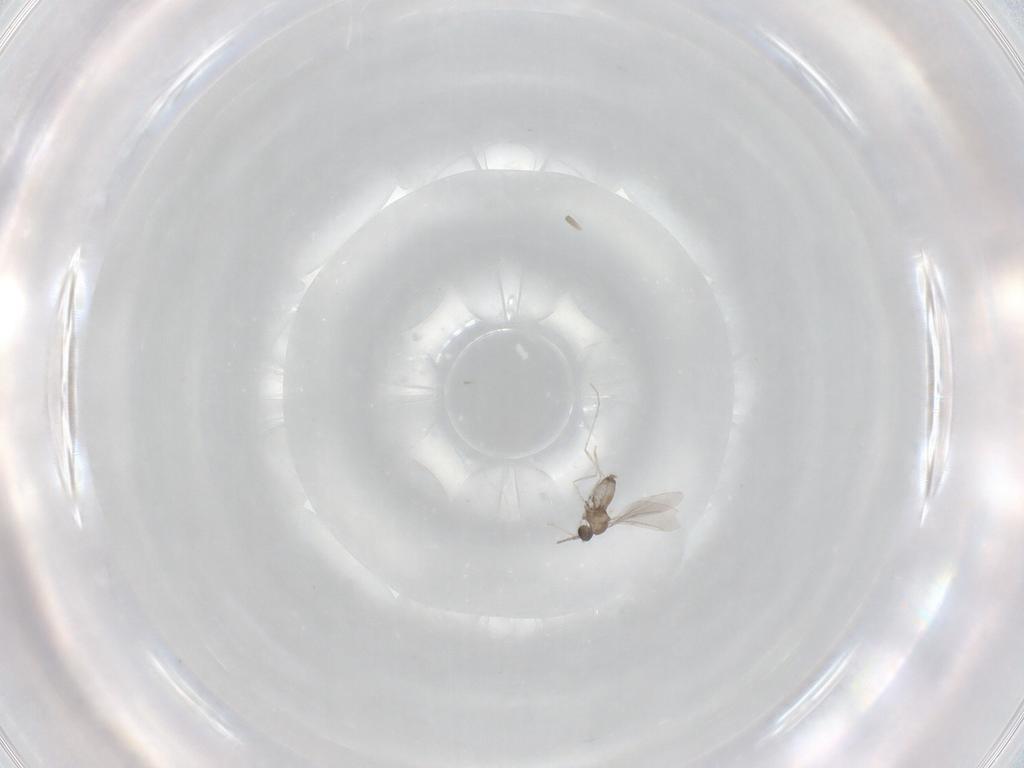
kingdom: Animalia
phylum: Arthropoda
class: Insecta
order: Diptera
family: Cecidomyiidae
